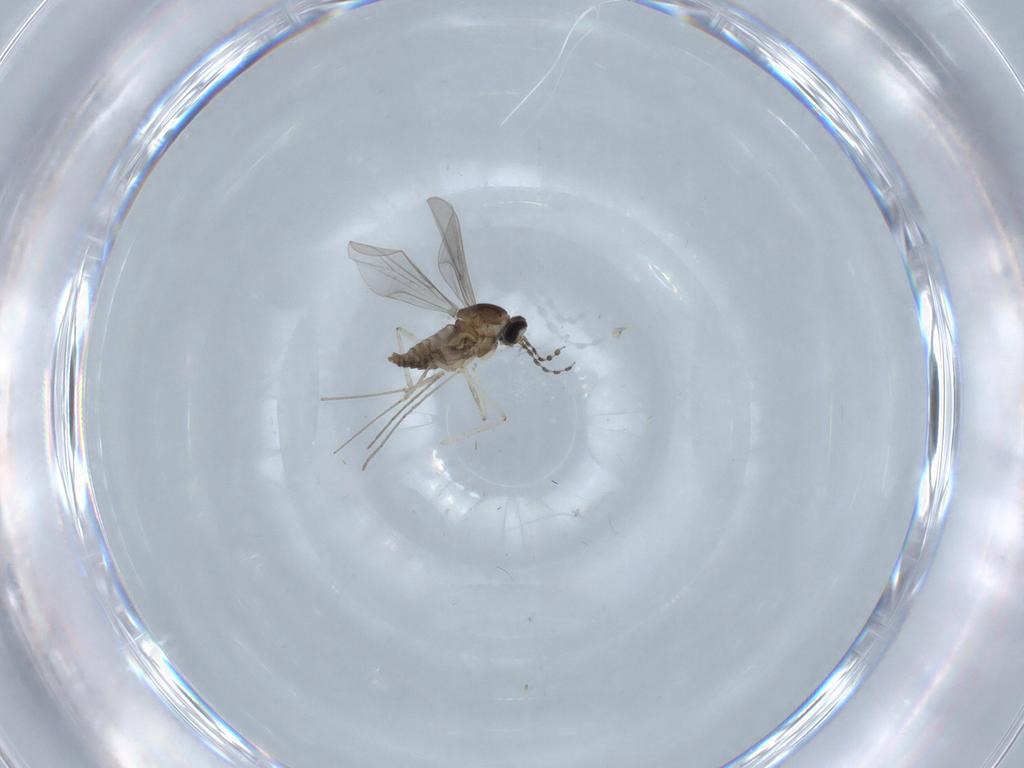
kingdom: Animalia
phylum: Arthropoda
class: Insecta
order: Diptera
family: Cecidomyiidae
